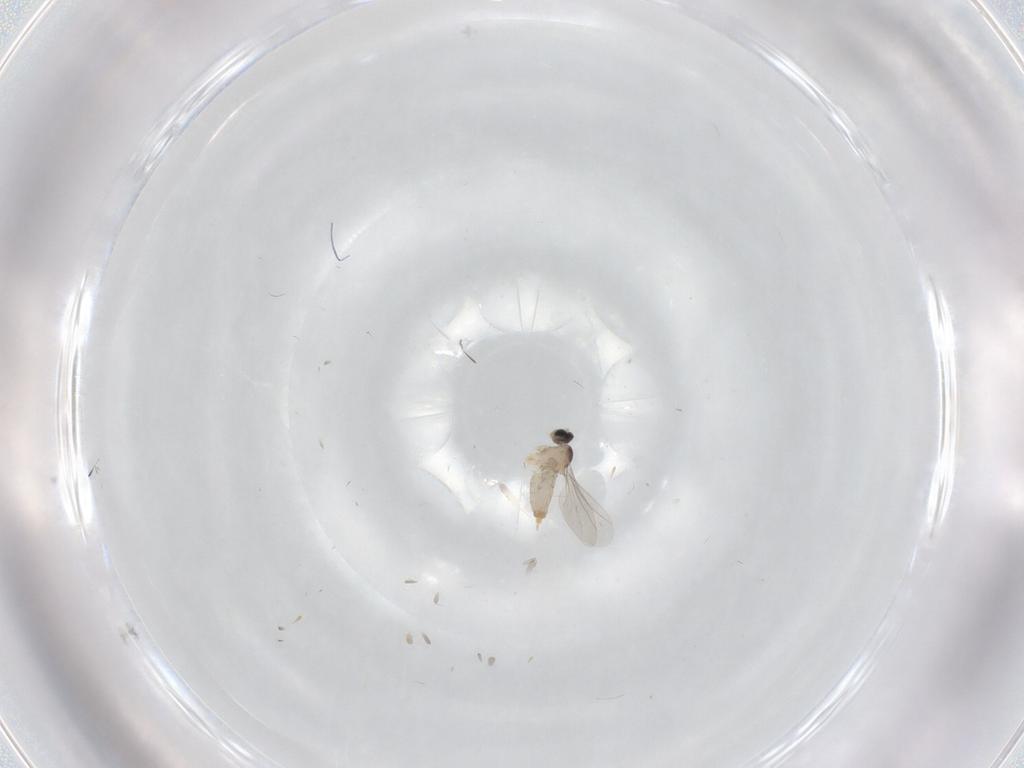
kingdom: Animalia
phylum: Arthropoda
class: Insecta
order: Diptera
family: Cecidomyiidae
